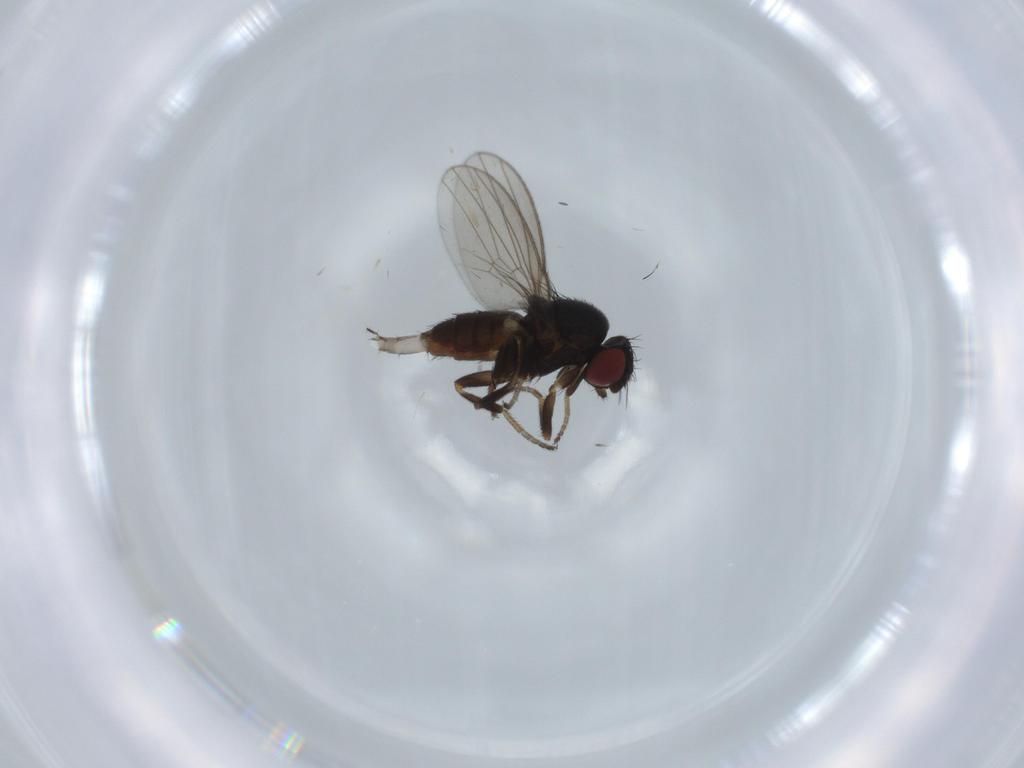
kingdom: Animalia
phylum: Arthropoda
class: Insecta
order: Diptera
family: Milichiidae
